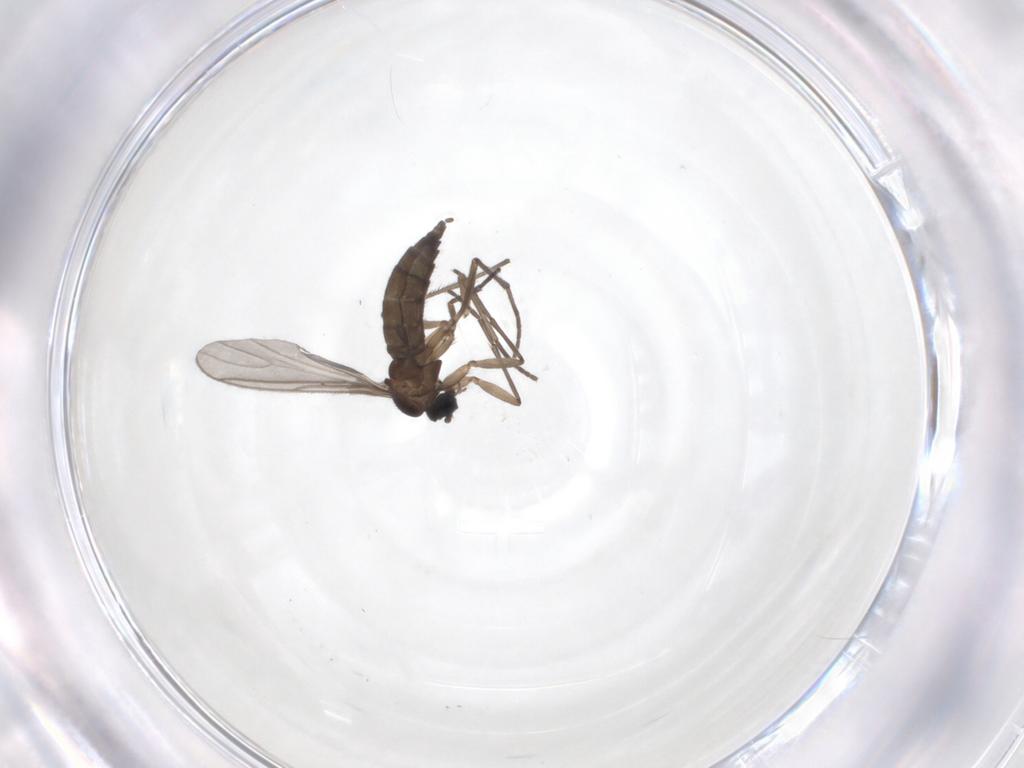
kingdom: Animalia
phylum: Arthropoda
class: Insecta
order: Diptera
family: Sciaridae
